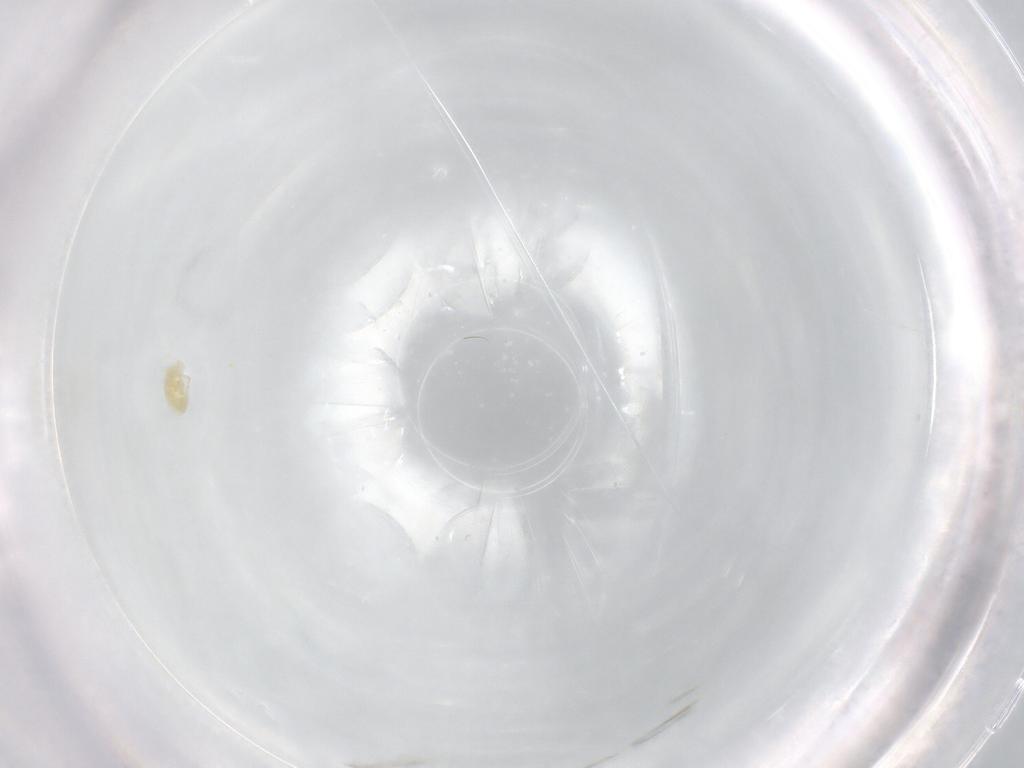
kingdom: Animalia
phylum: Arthropoda
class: Arachnida
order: Trombidiformes
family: Eupodidae
